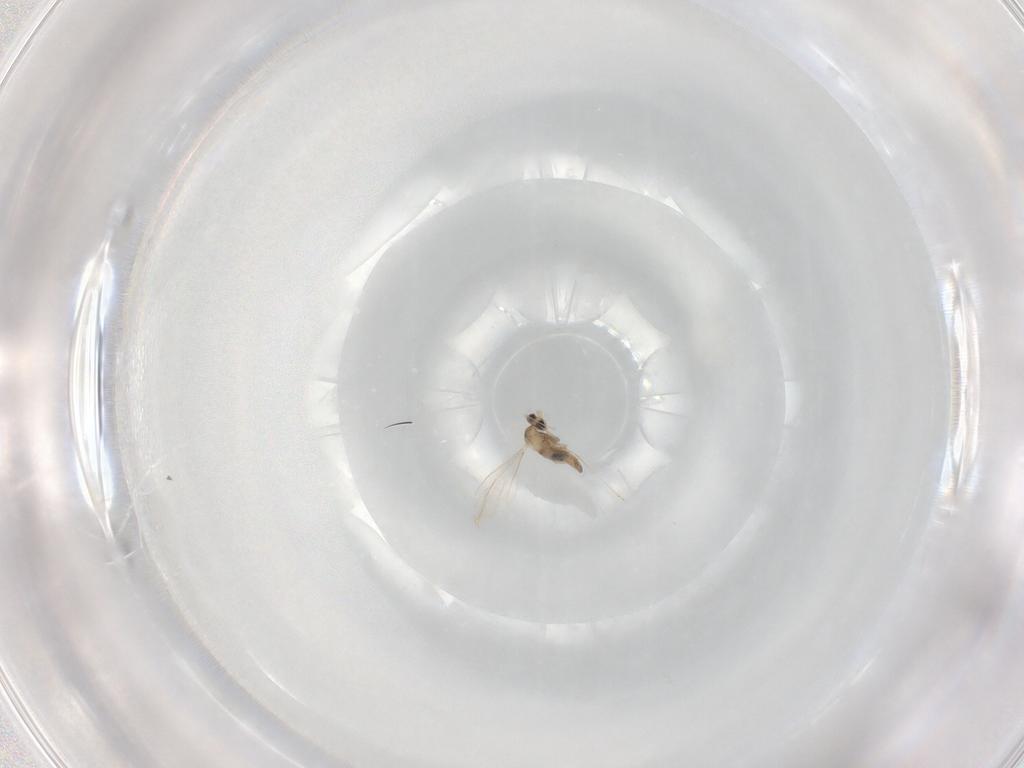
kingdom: Animalia
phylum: Arthropoda
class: Insecta
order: Diptera
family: Cecidomyiidae
